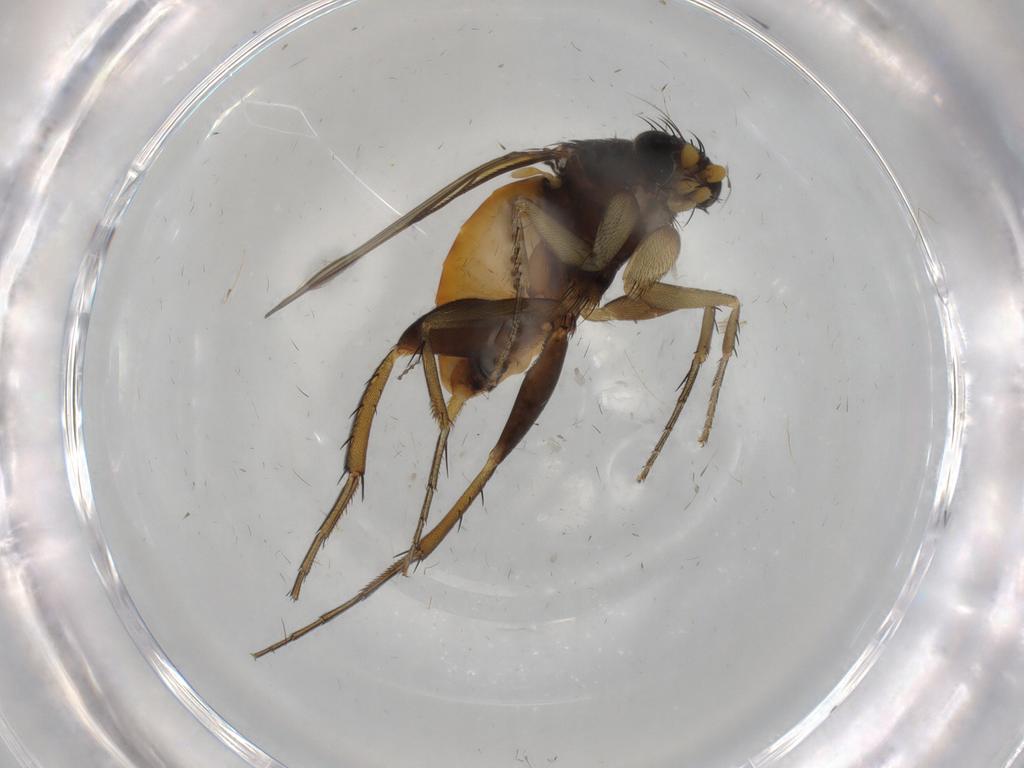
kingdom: Animalia
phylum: Arthropoda
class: Insecta
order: Diptera
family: Phoridae
